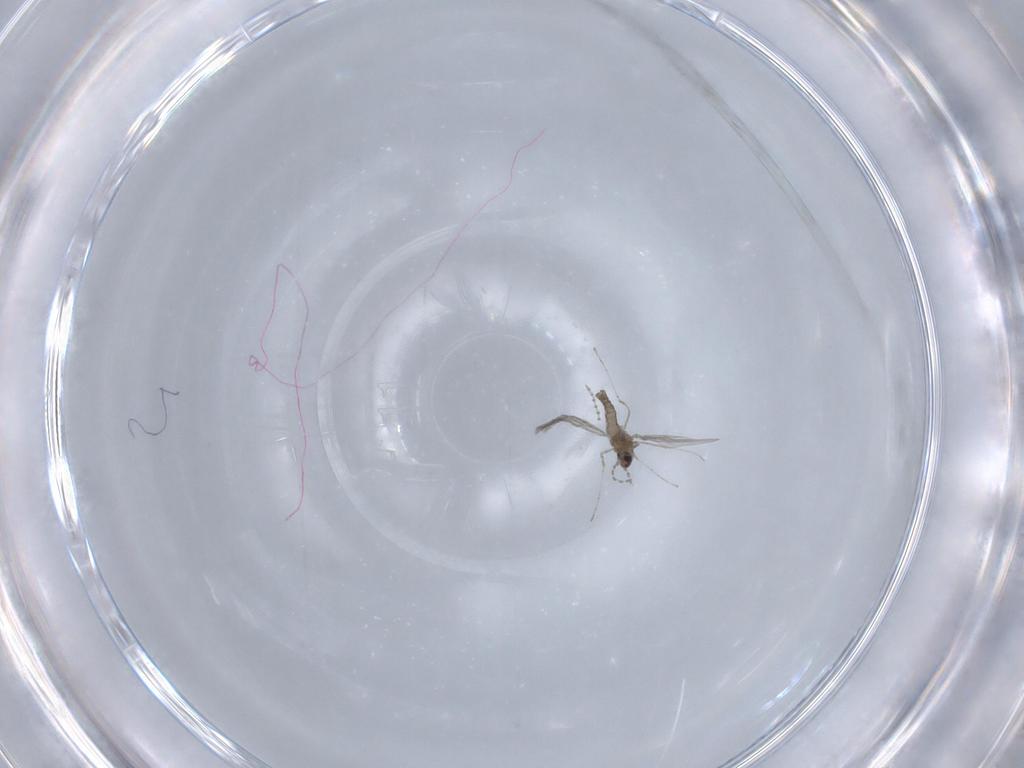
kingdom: Animalia
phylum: Arthropoda
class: Insecta
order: Diptera
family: Cecidomyiidae
